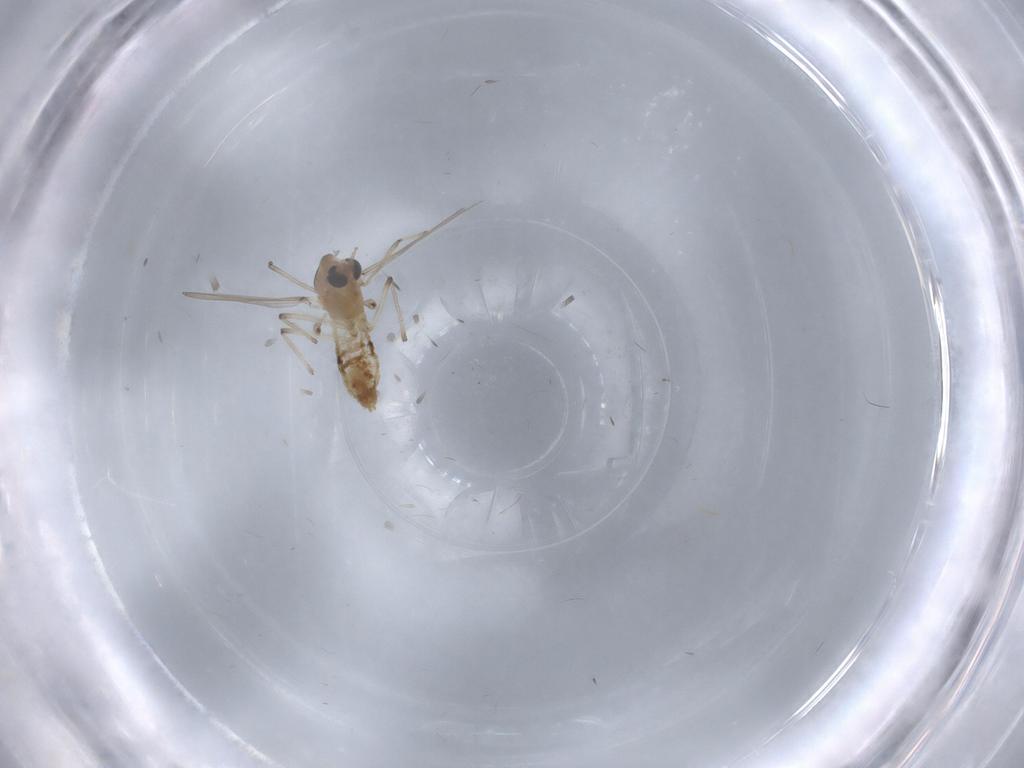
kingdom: Animalia
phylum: Arthropoda
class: Insecta
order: Diptera
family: Chironomidae
